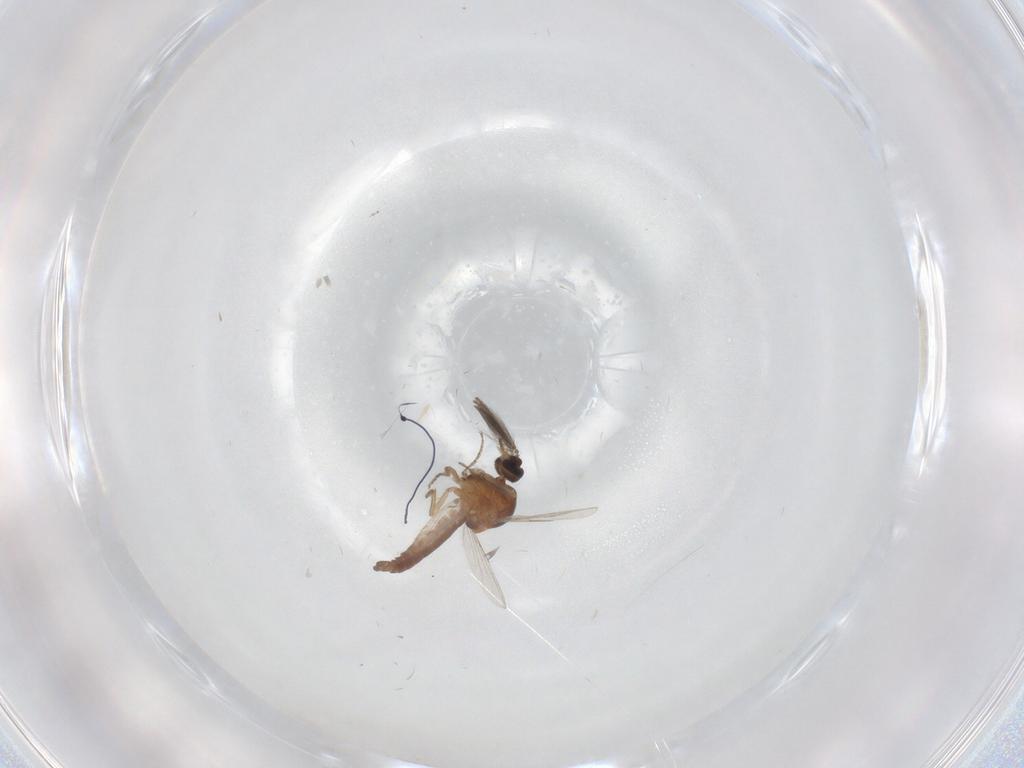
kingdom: Animalia
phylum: Arthropoda
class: Insecta
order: Diptera
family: Ceratopogonidae
